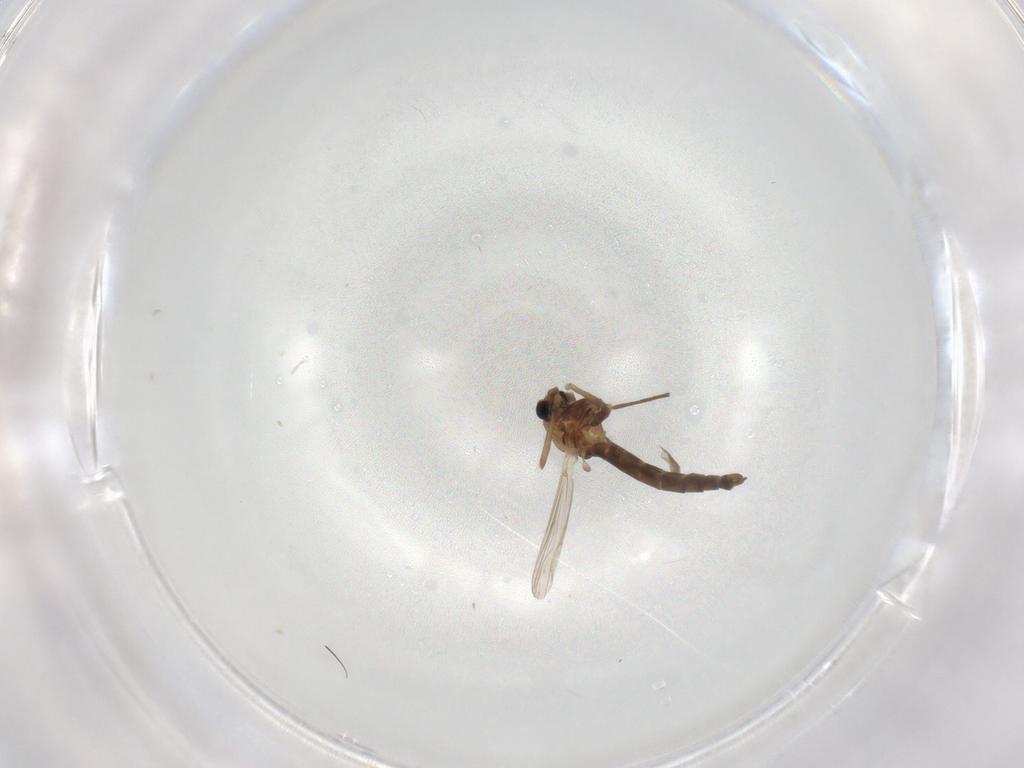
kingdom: Animalia
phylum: Arthropoda
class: Insecta
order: Diptera
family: Chironomidae
